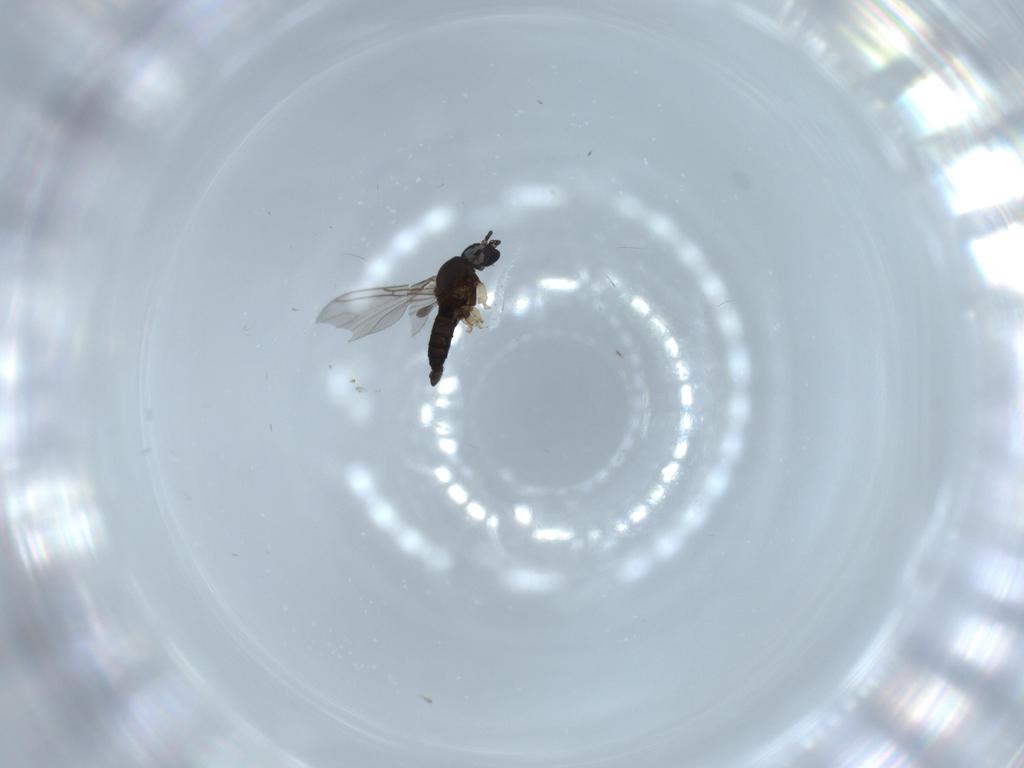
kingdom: Animalia
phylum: Arthropoda
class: Insecta
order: Diptera
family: Sciaridae
